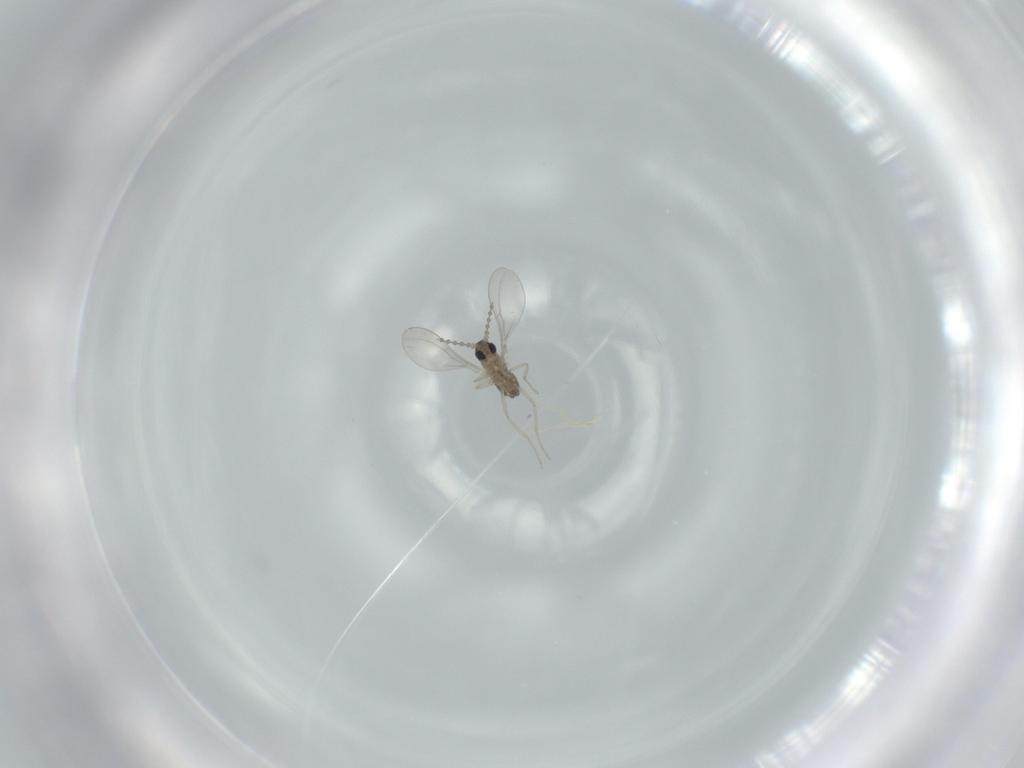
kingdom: Animalia
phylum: Arthropoda
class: Insecta
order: Diptera
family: Cecidomyiidae
